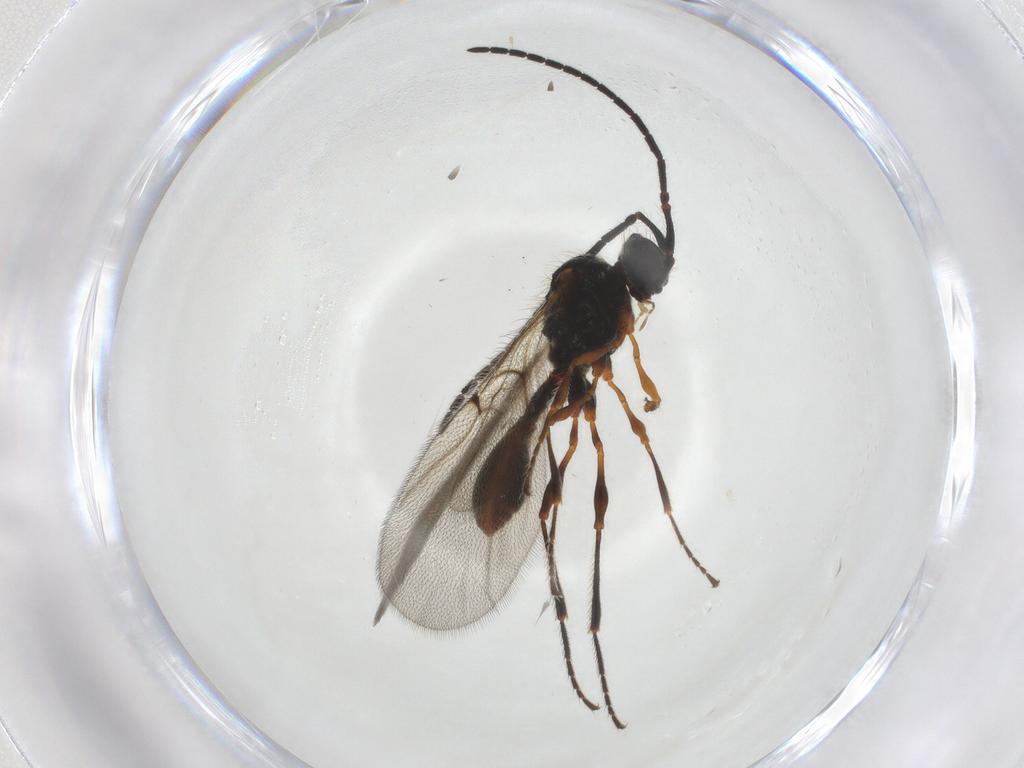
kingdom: Animalia
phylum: Arthropoda
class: Insecta
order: Hymenoptera
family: Diapriidae
